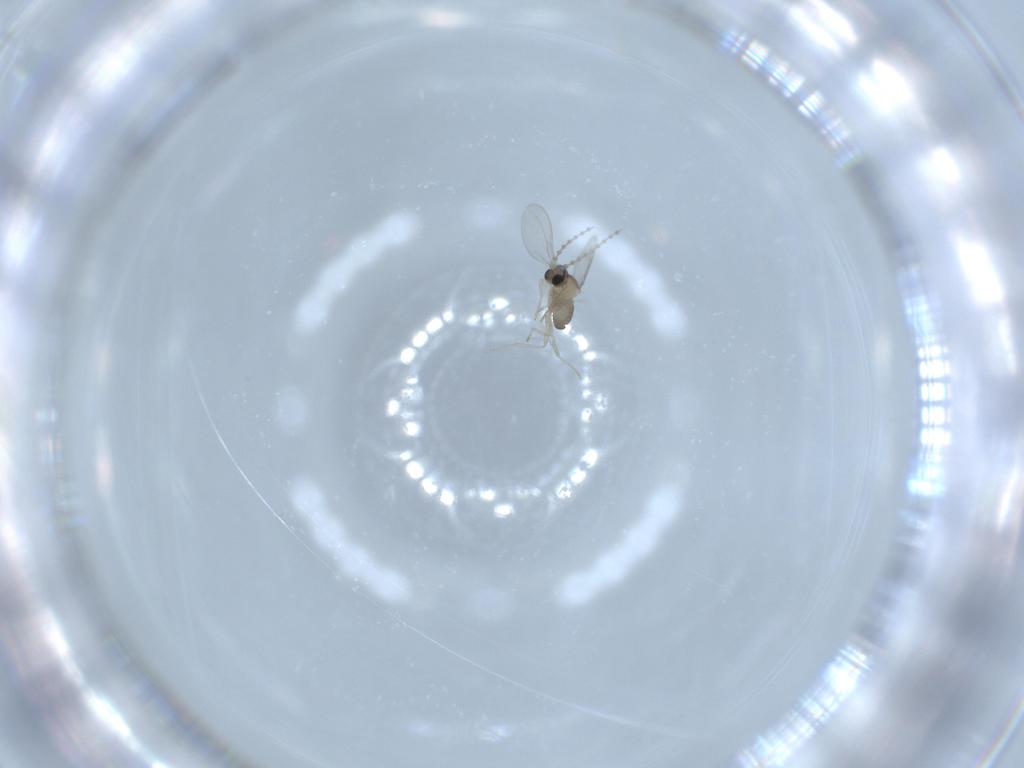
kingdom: Animalia
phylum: Arthropoda
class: Insecta
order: Diptera
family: Cecidomyiidae
